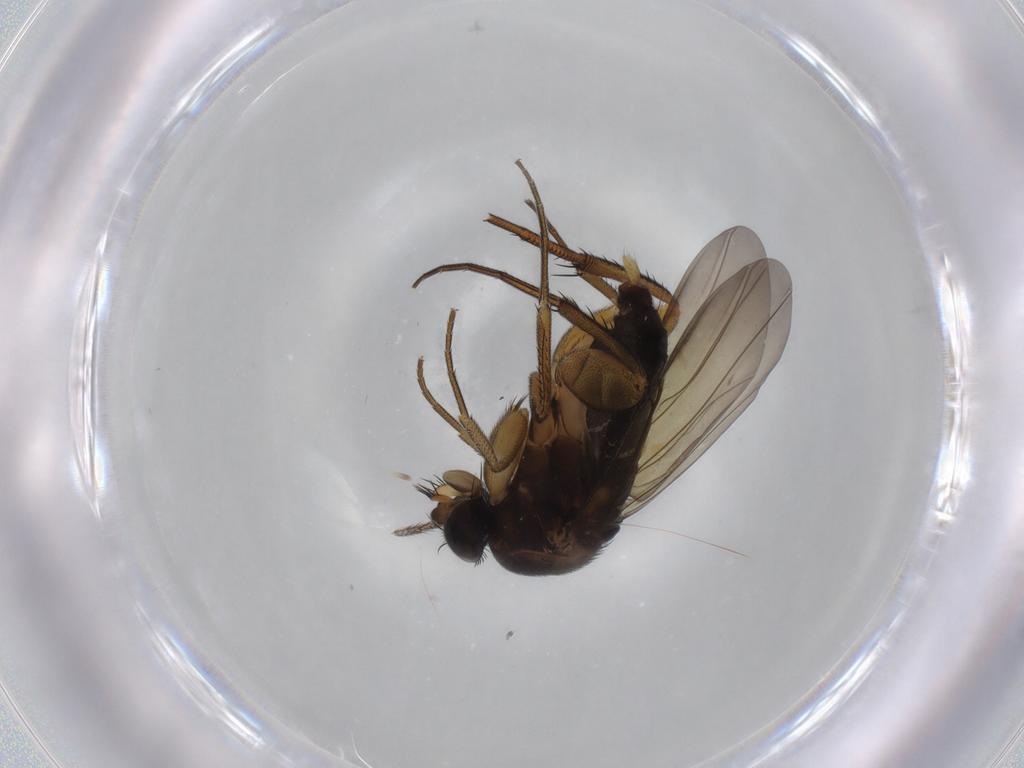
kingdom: Animalia
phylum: Arthropoda
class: Insecta
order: Diptera
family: Phoridae
